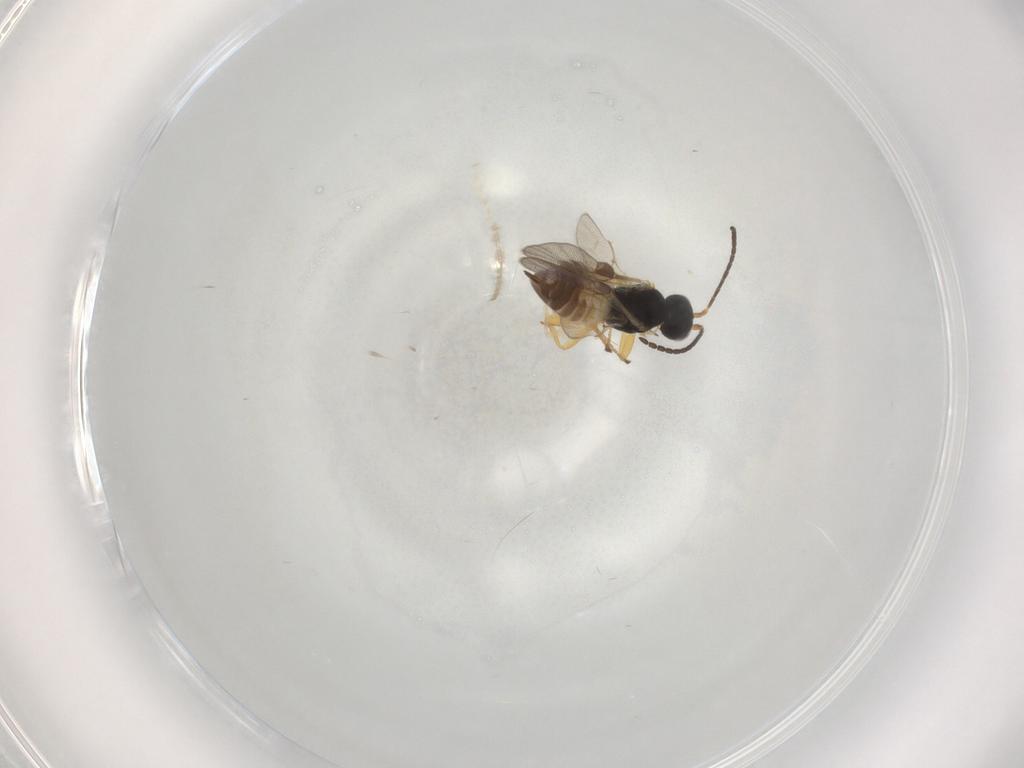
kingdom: Animalia
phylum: Arthropoda
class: Insecta
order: Hymenoptera
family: Braconidae
